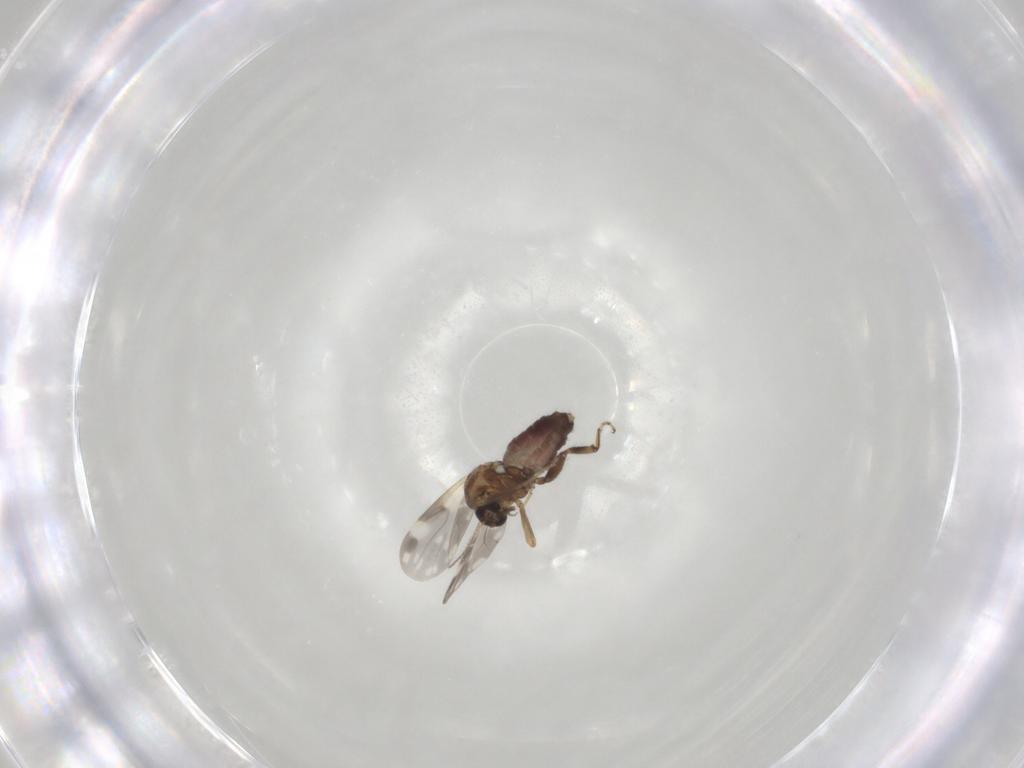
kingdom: Animalia
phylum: Arthropoda
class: Insecta
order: Diptera
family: Ceratopogonidae
